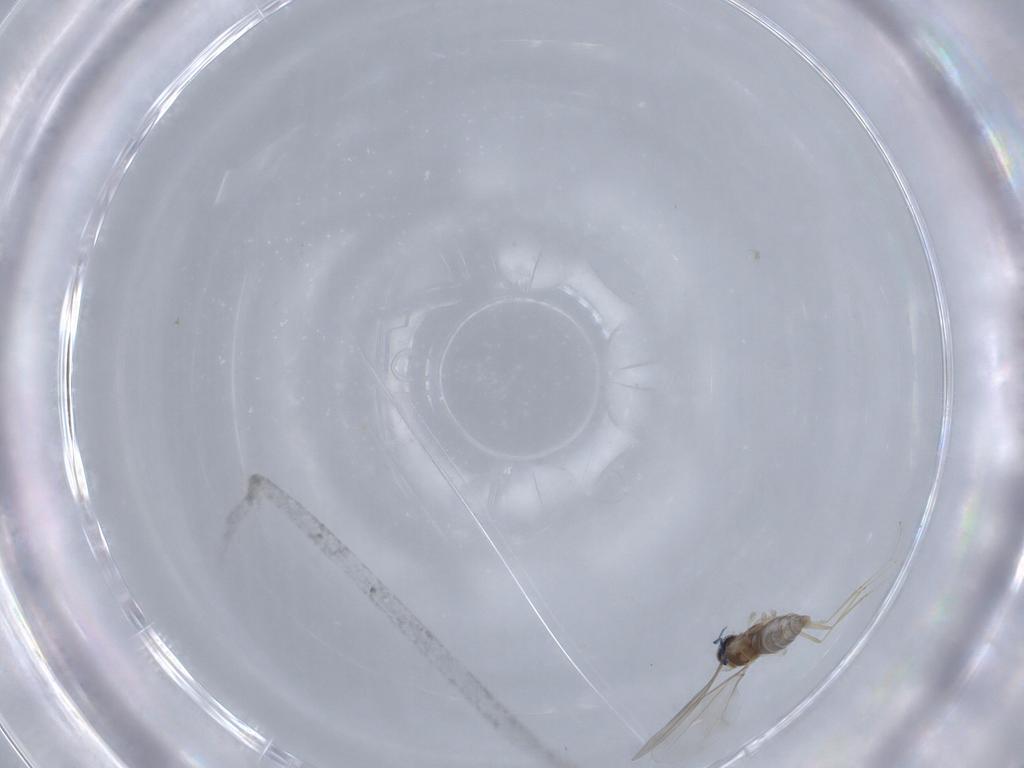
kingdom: Animalia
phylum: Arthropoda
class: Insecta
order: Diptera
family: Cecidomyiidae
